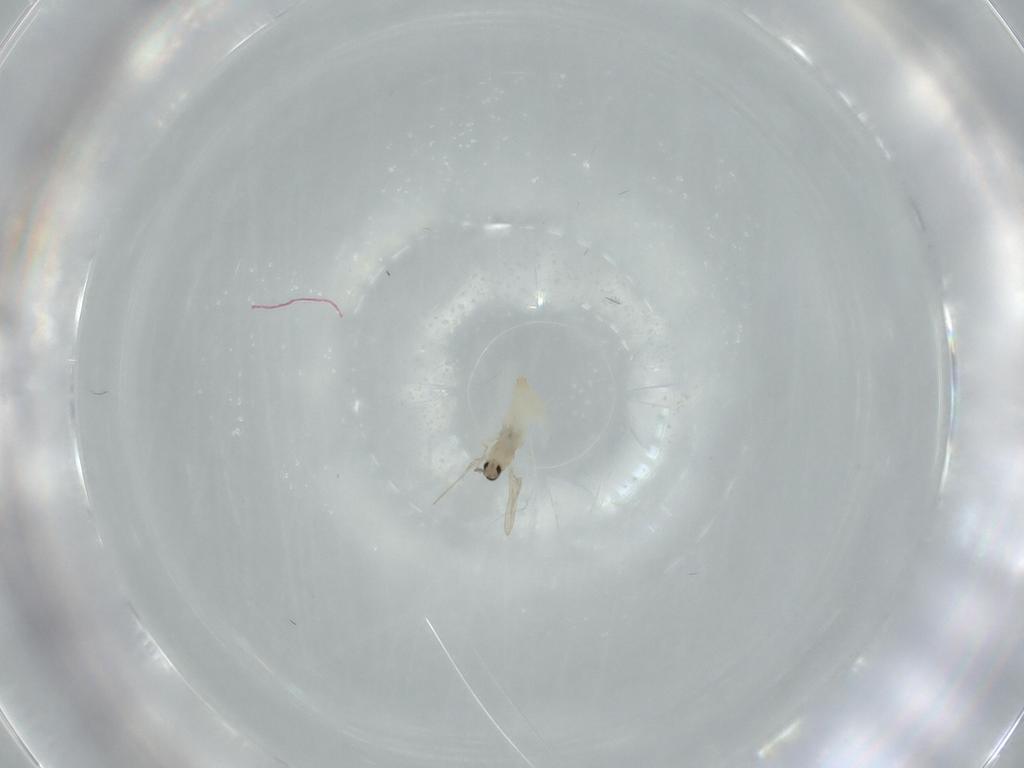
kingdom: Animalia
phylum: Arthropoda
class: Insecta
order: Diptera
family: Cecidomyiidae
